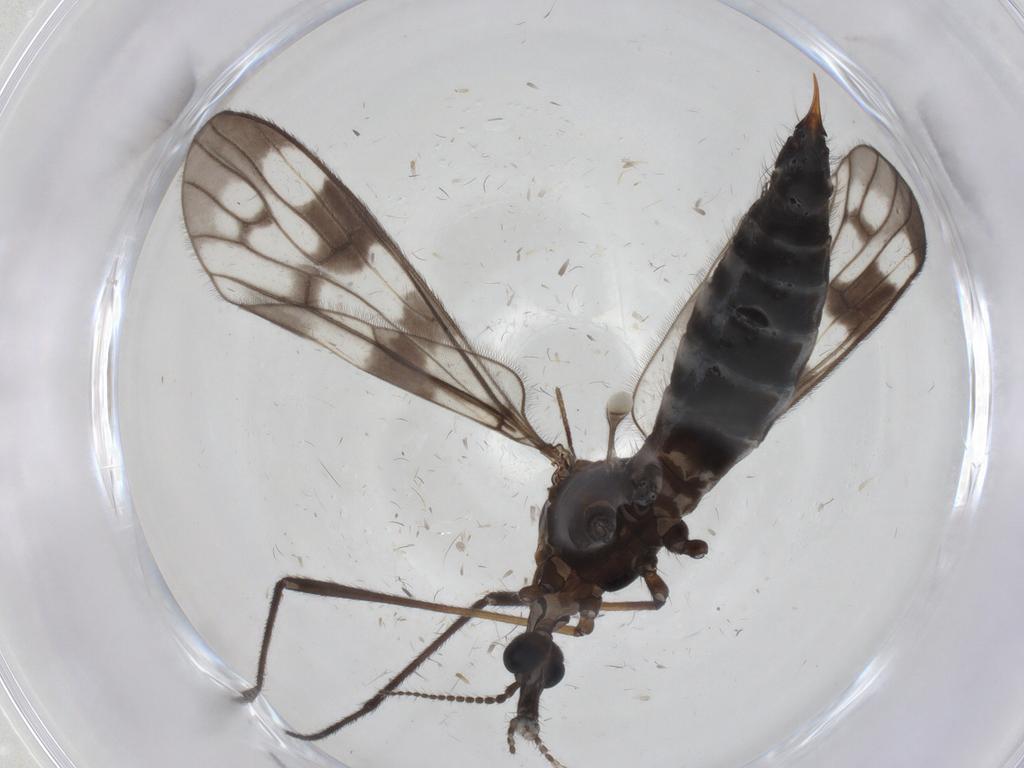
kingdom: Animalia
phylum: Arthropoda
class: Insecta
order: Diptera
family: Limoniidae
